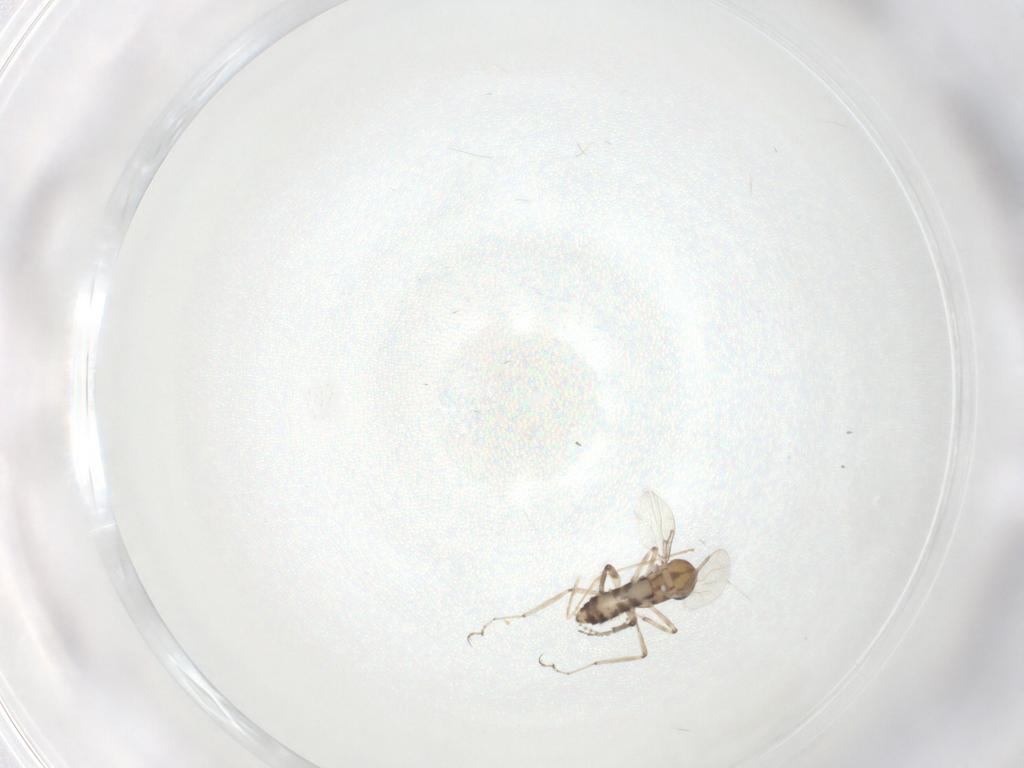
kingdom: Animalia
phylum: Arthropoda
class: Insecta
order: Diptera
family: Ceratopogonidae
